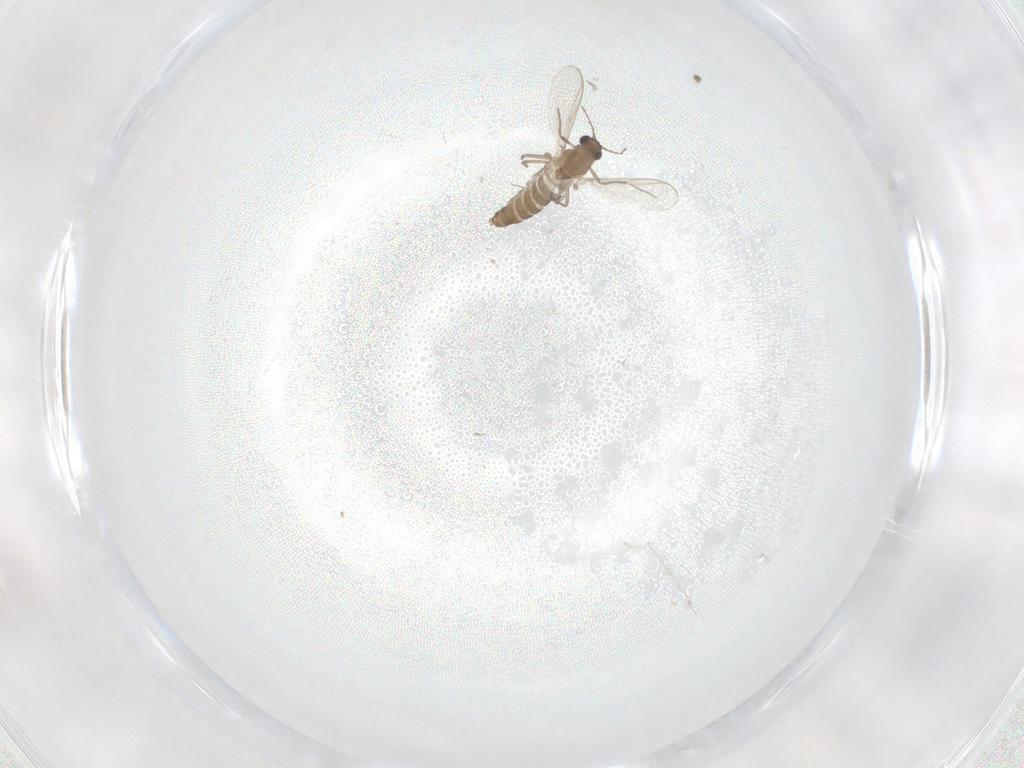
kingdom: Animalia
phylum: Arthropoda
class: Insecta
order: Diptera
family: Chironomidae
